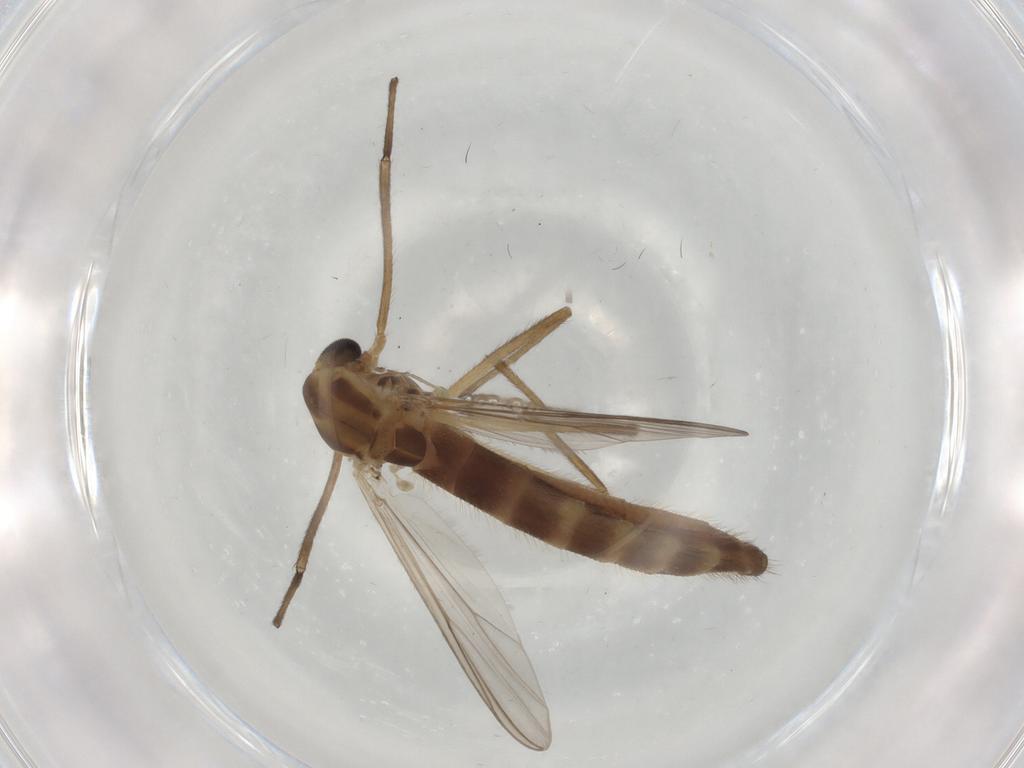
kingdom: Animalia
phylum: Arthropoda
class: Insecta
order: Diptera
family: Chironomidae
